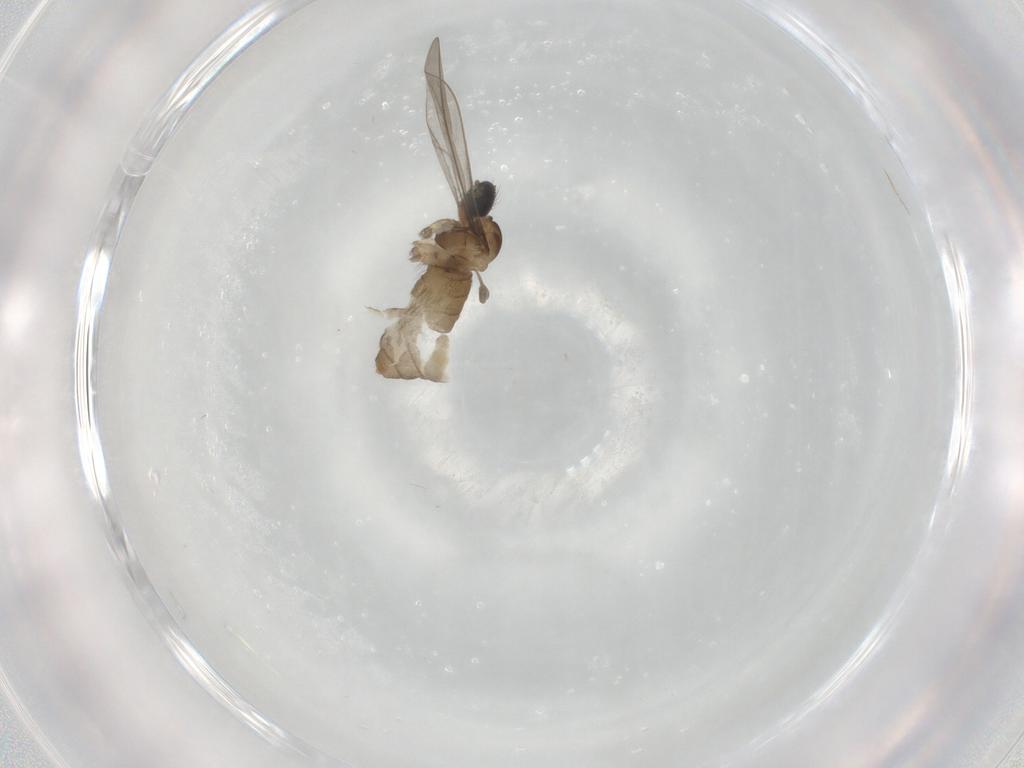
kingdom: Animalia
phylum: Arthropoda
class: Insecta
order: Diptera
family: Cecidomyiidae
